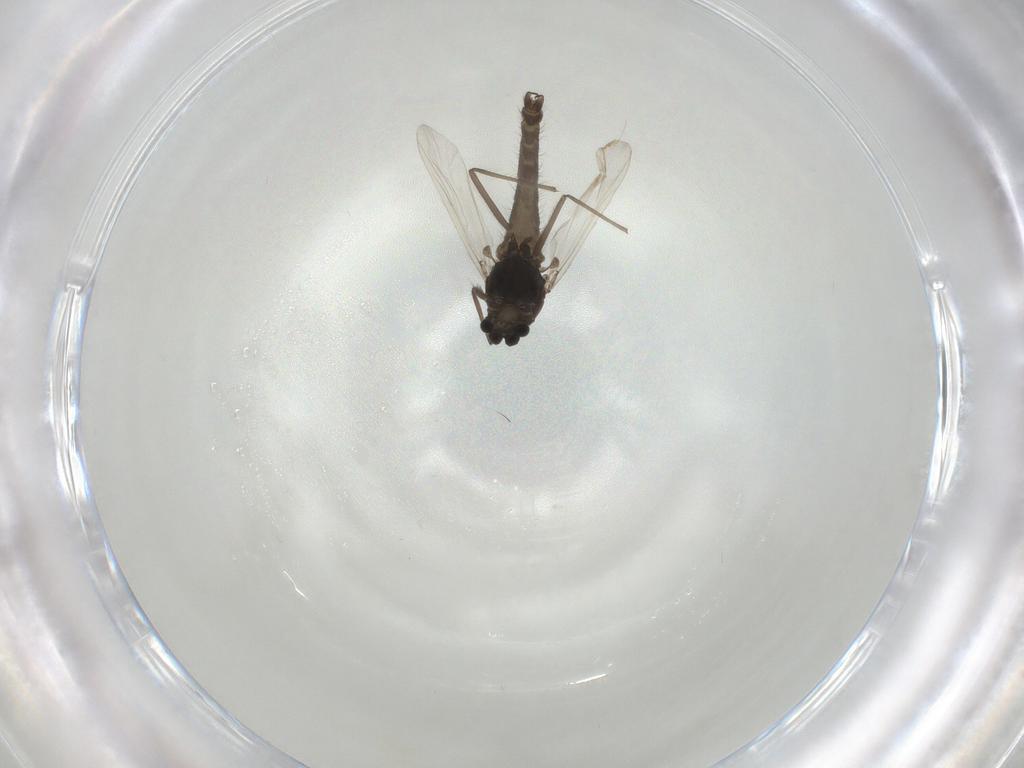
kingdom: Animalia
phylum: Arthropoda
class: Insecta
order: Diptera
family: Chironomidae
